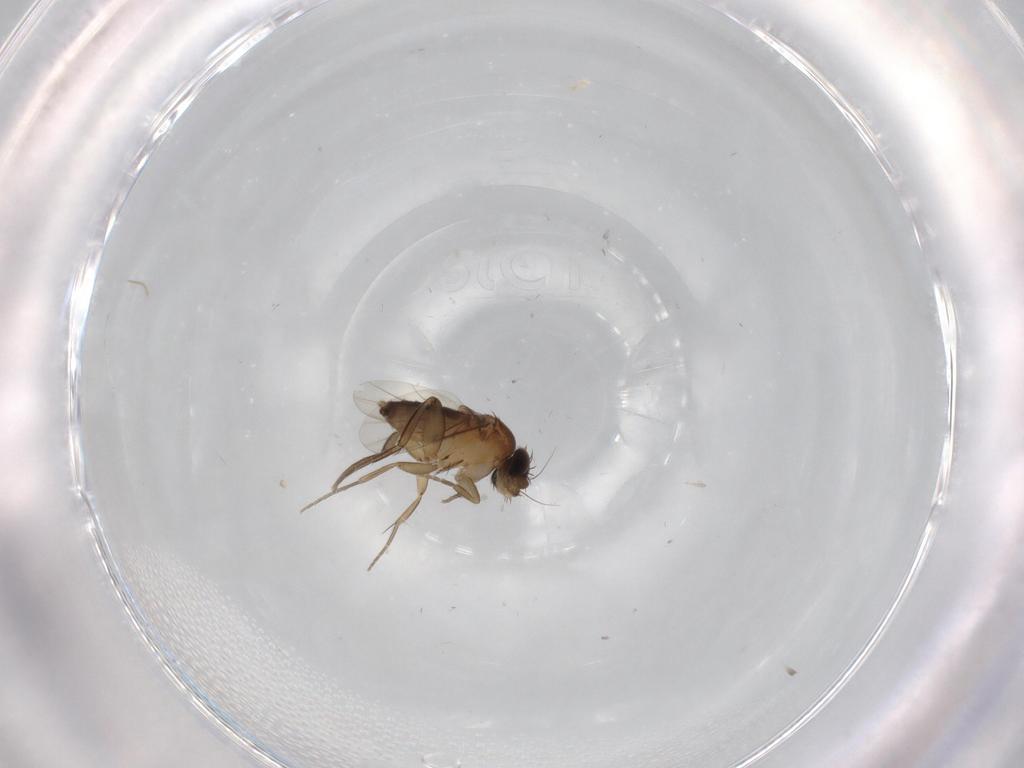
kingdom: Animalia
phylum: Arthropoda
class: Insecta
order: Diptera
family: Phoridae
